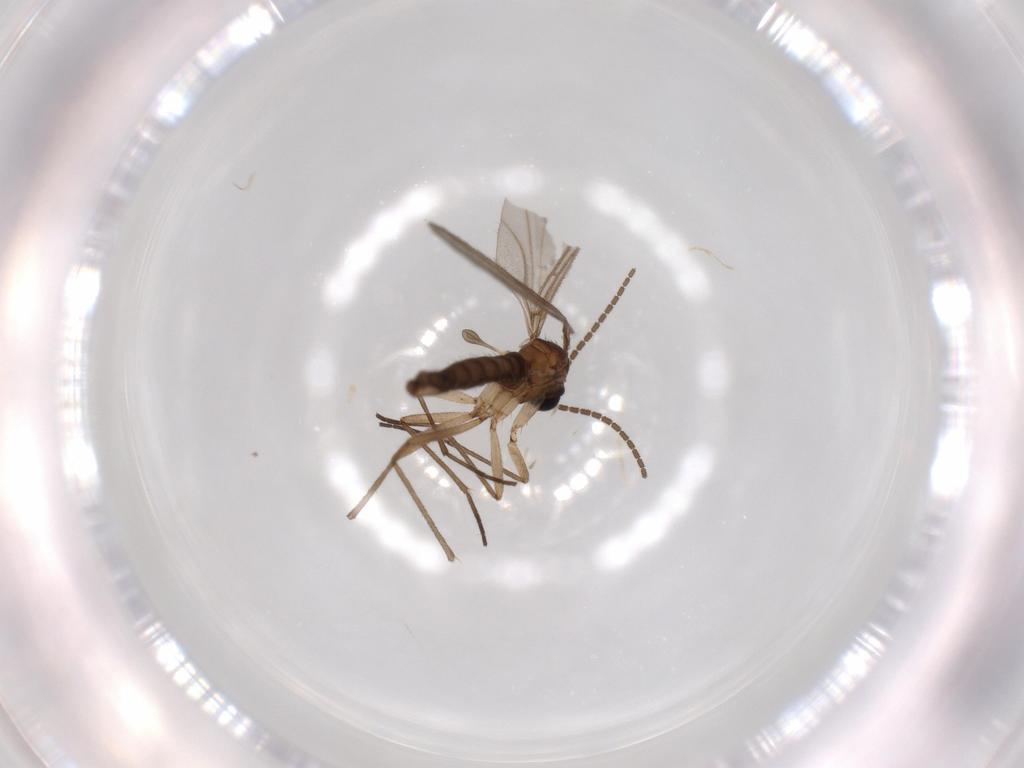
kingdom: Animalia
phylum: Arthropoda
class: Insecta
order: Diptera
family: Sciaridae
